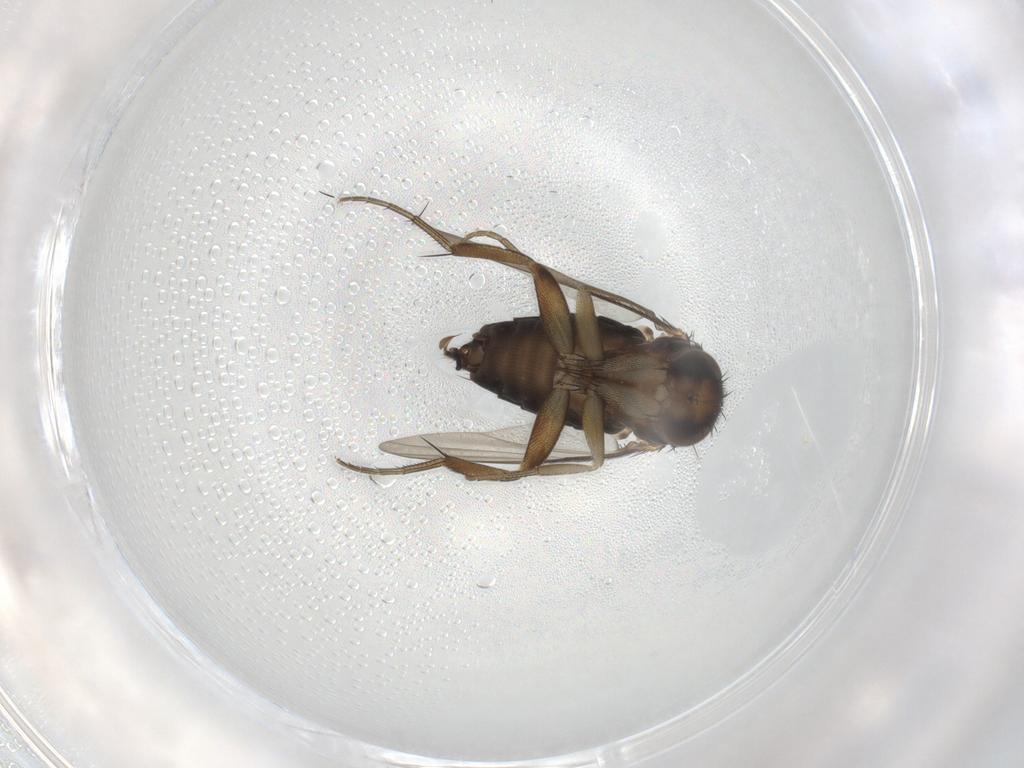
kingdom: Animalia
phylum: Arthropoda
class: Insecta
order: Diptera
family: Phoridae
